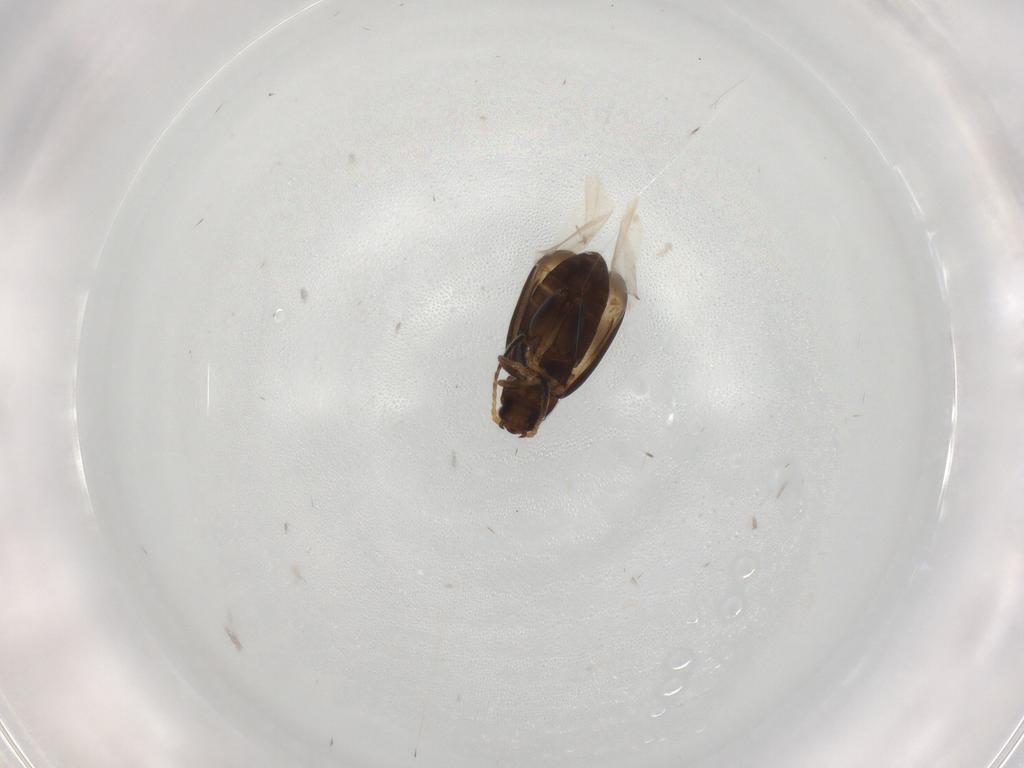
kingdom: Animalia
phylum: Arthropoda
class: Insecta
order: Coleoptera
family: Chrysomelidae
